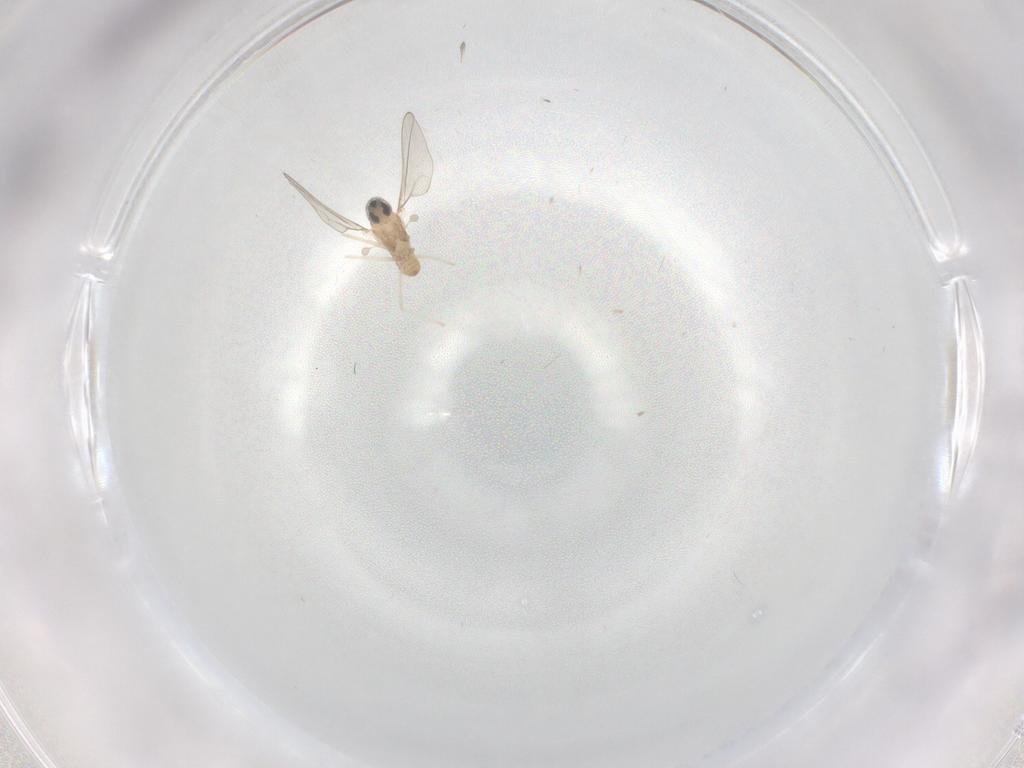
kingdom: Animalia
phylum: Arthropoda
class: Insecta
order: Diptera
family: Cecidomyiidae
